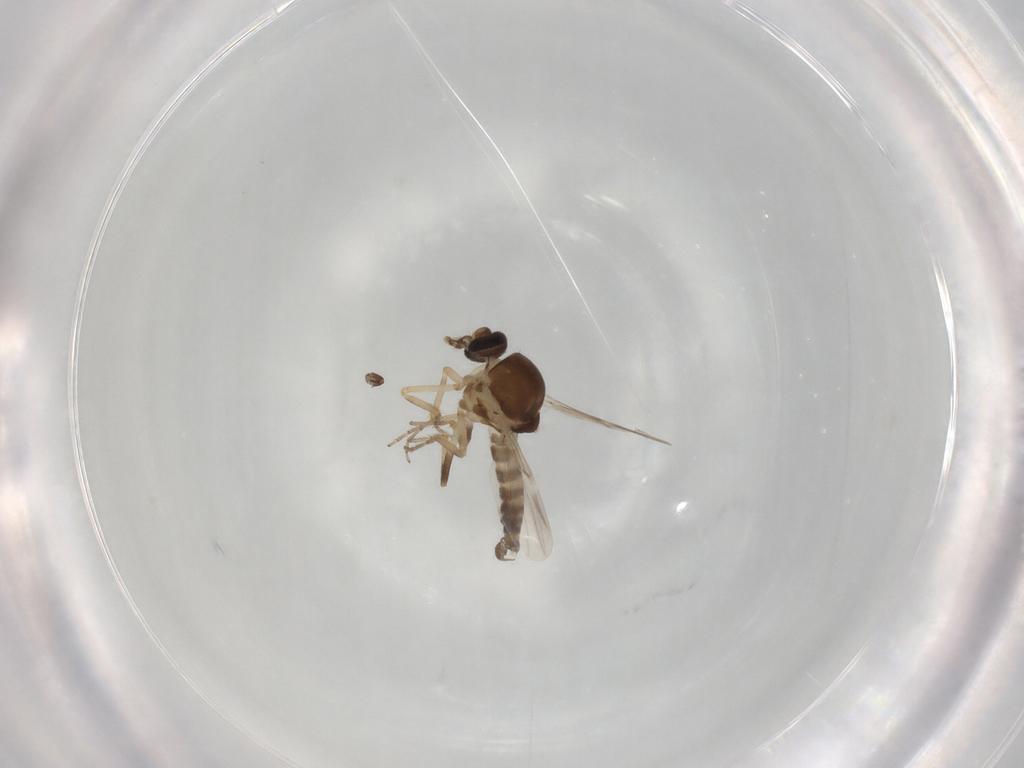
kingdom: Animalia
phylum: Arthropoda
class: Insecta
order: Diptera
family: Ceratopogonidae
